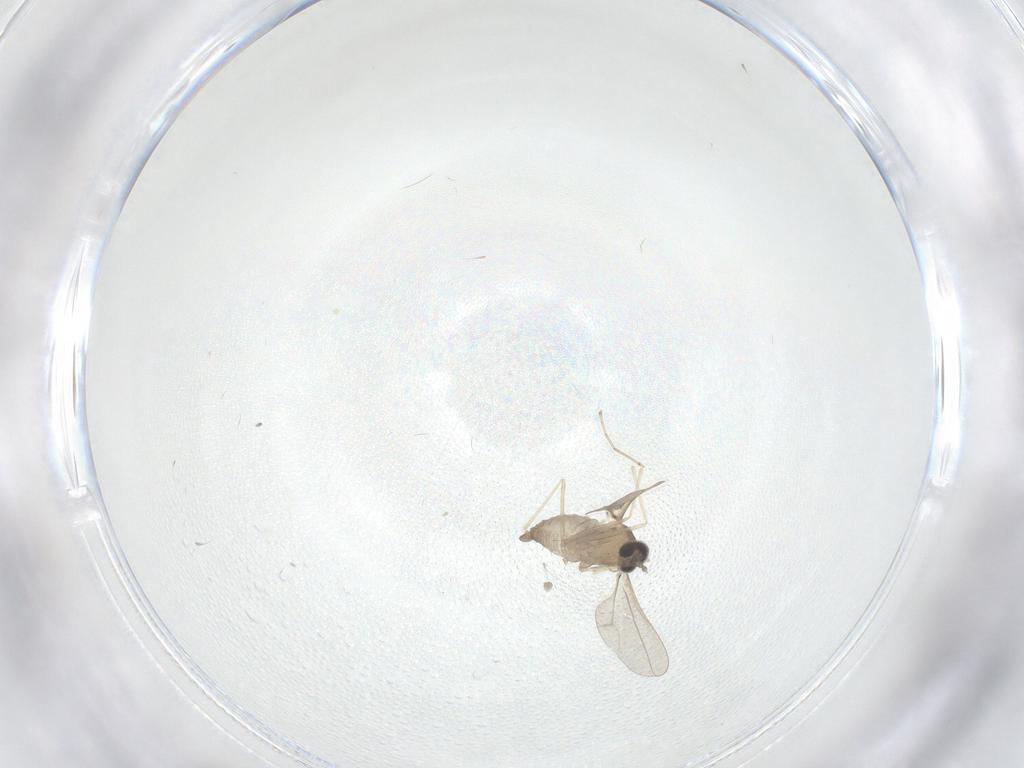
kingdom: Animalia
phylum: Arthropoda
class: Insecta
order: Diptera
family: Cecidomyiidae
